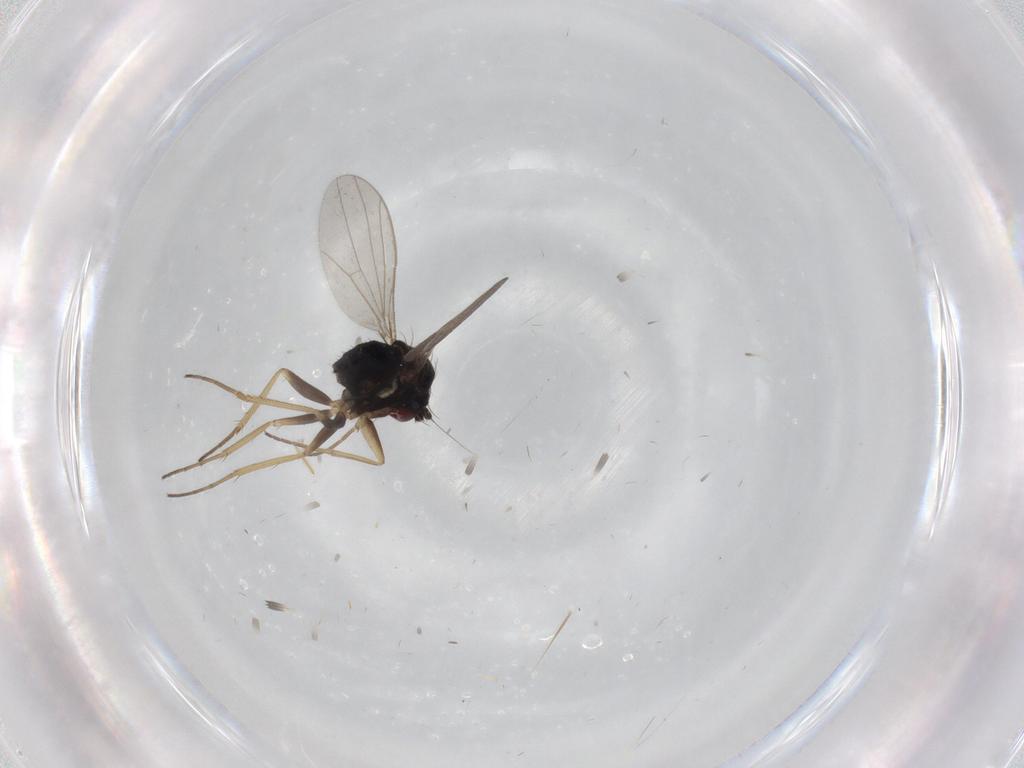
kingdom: Animalia
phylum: Arthropoda
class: Insecta
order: Diptera
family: Dolichopodidae
